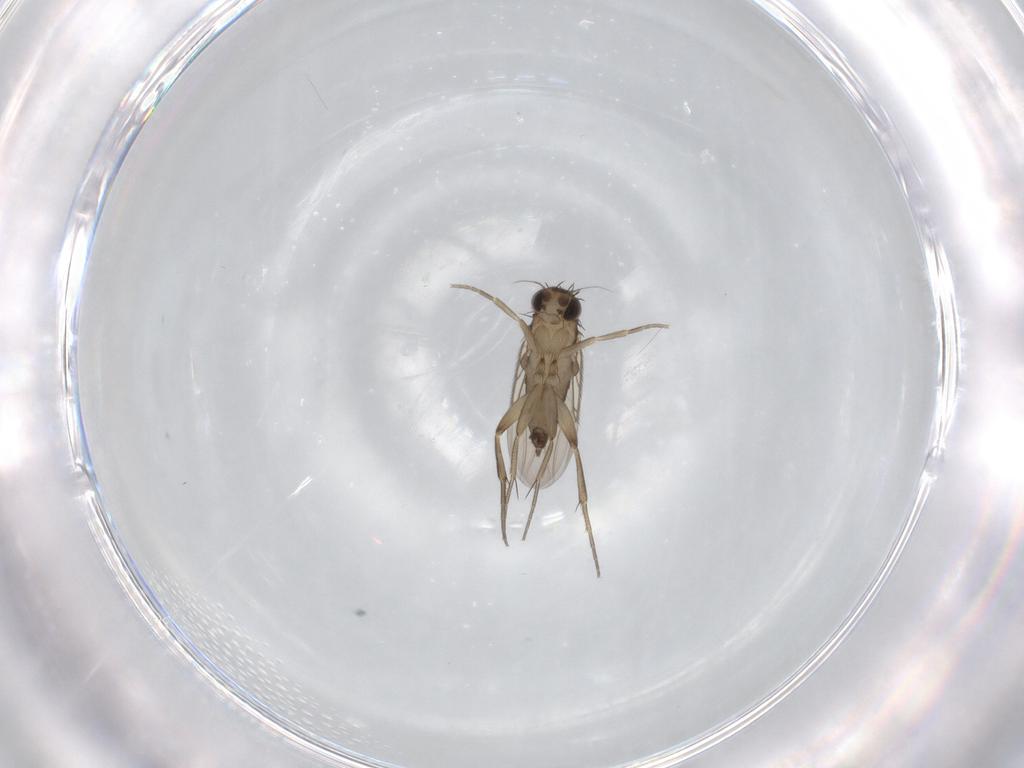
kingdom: Animalia
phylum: Arthropoda
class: Insecta
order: Diptera
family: Phoridae
